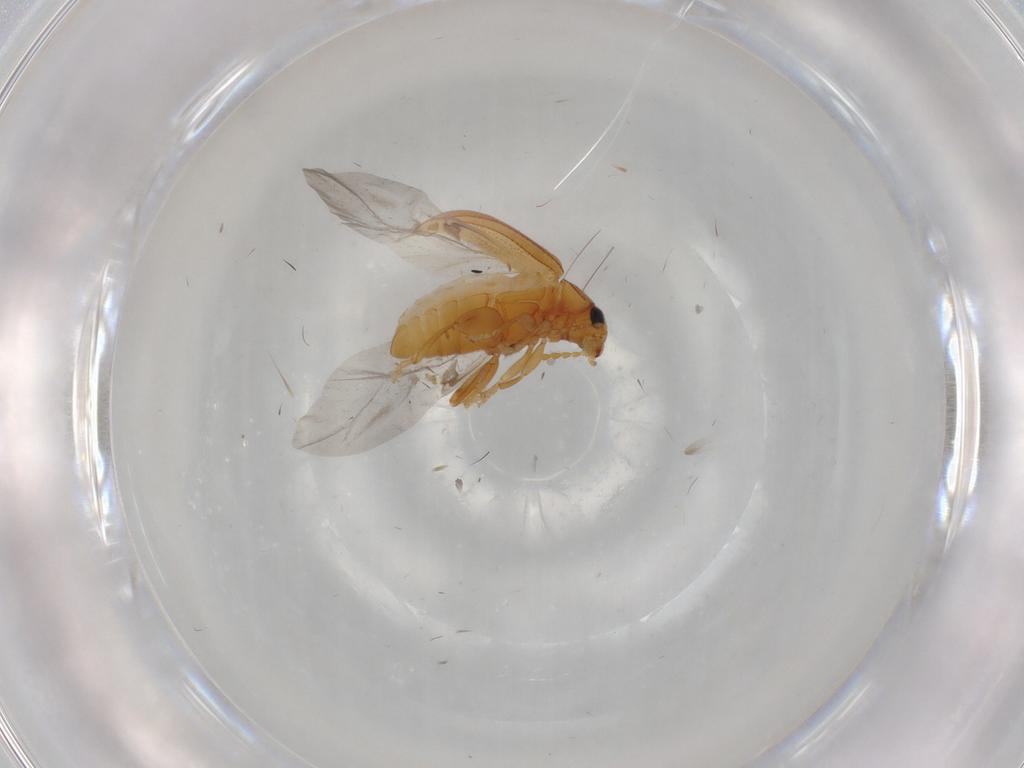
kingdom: Animalia
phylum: Arthropoda
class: Insecta
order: Coleoptera
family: Chrysomelidae
